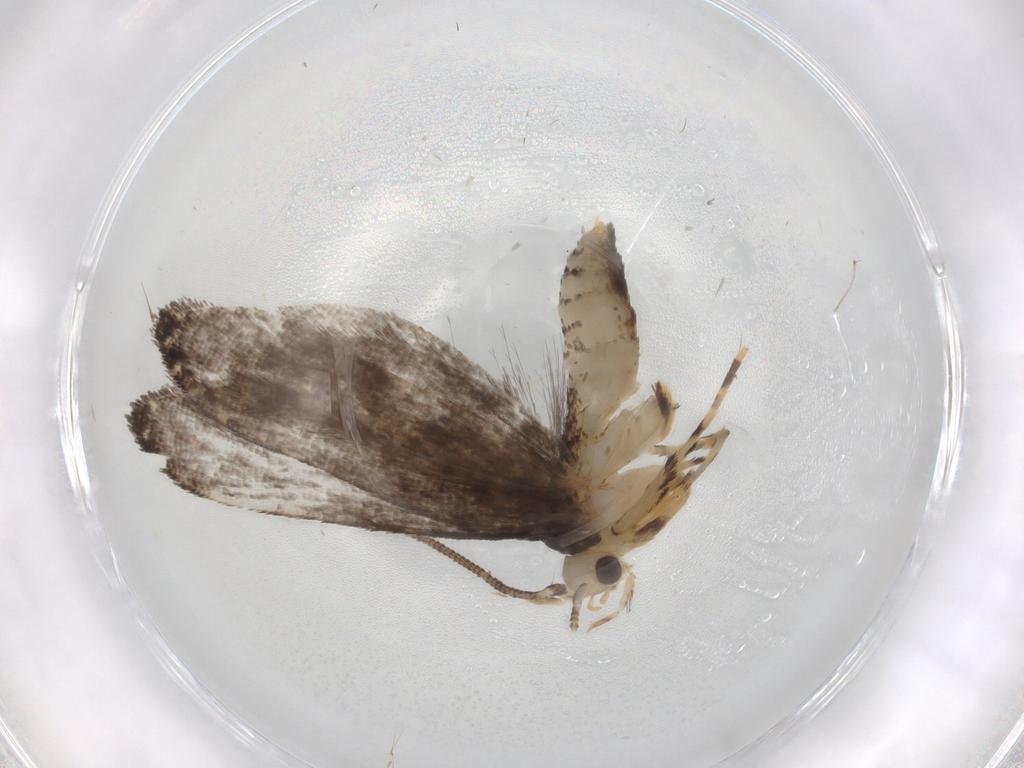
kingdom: Animalia
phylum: Arthropoda
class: Insecta
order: Lepidoptera
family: Tineidae
